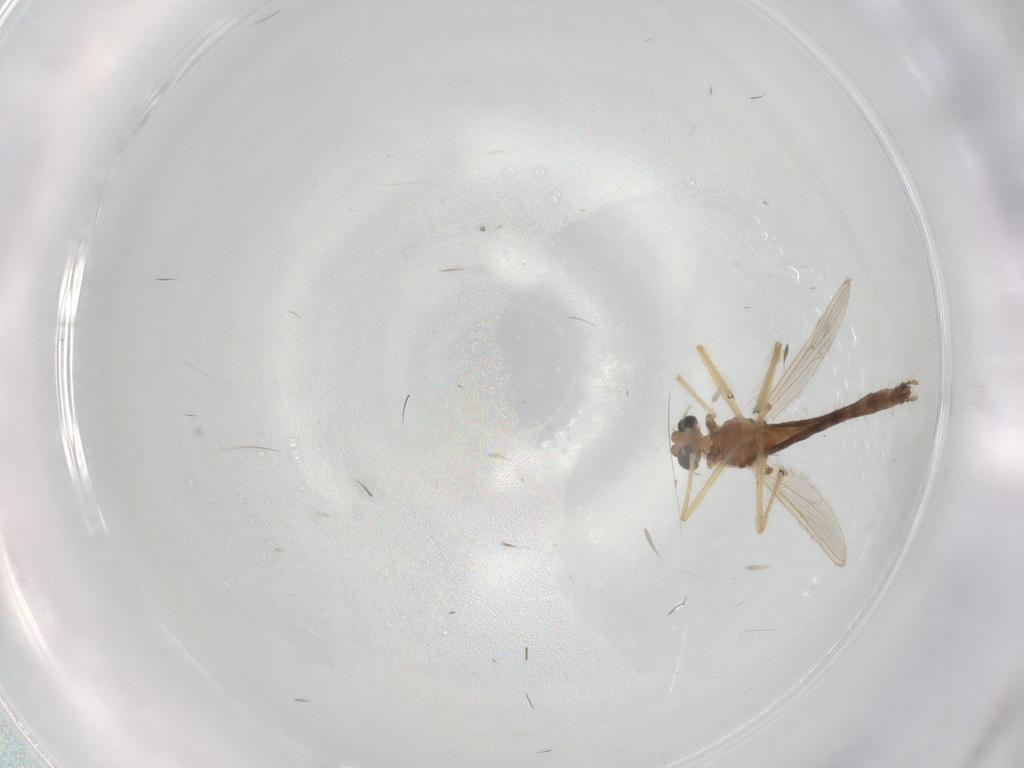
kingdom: Animalia
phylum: Arthropoda
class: Insecta
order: Diptera
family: Chironomidae
